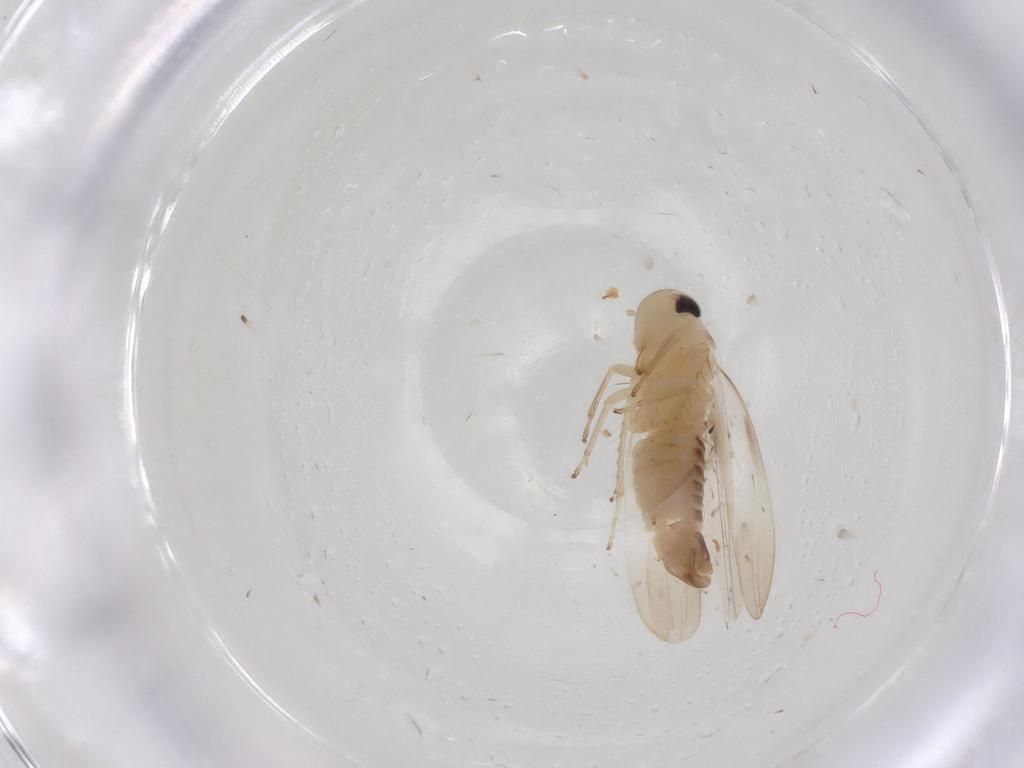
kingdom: Animalia
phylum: Arthropoda
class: Insecta
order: Hemiptera
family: Cicadellidae
